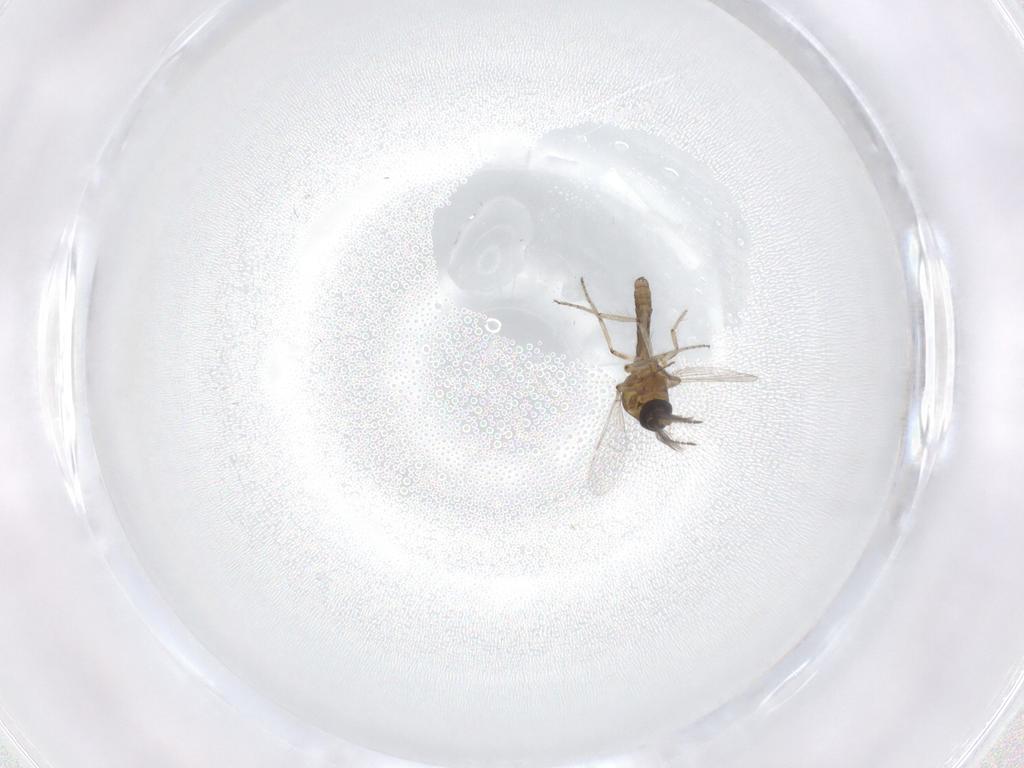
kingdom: Animalia
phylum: Arthropoda
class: Insecta
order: Diptera
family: Ceratopogonidae
